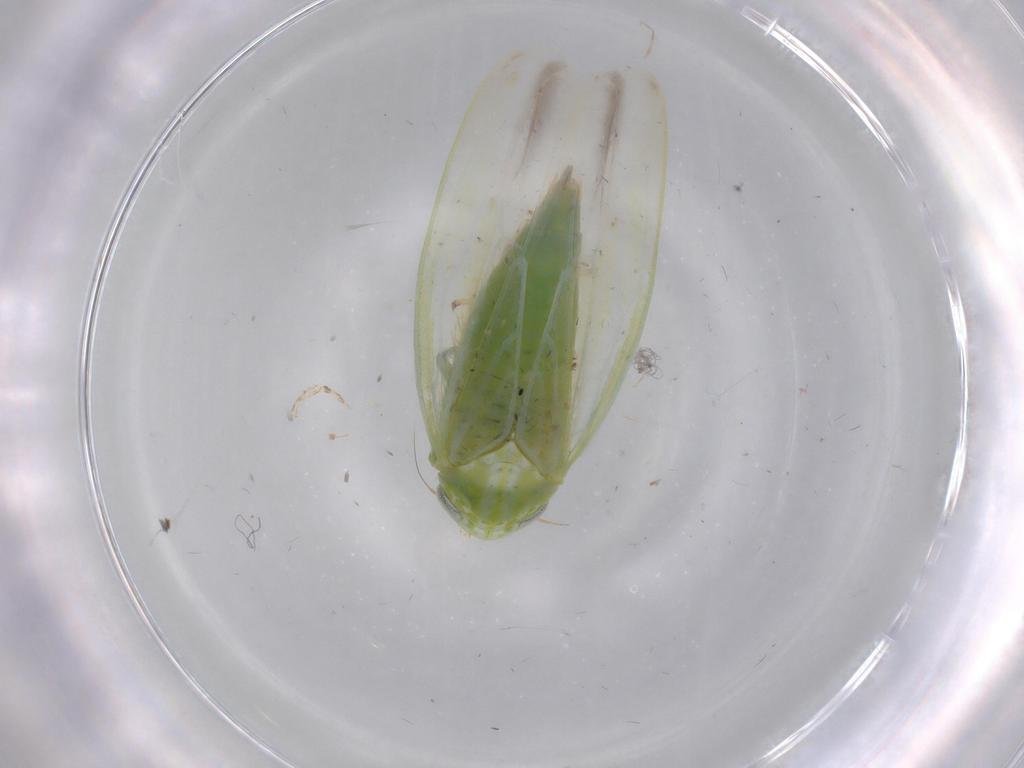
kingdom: Animalia
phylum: Arthropoda
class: Insecta
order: Hemiptera
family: Cicadellidae
